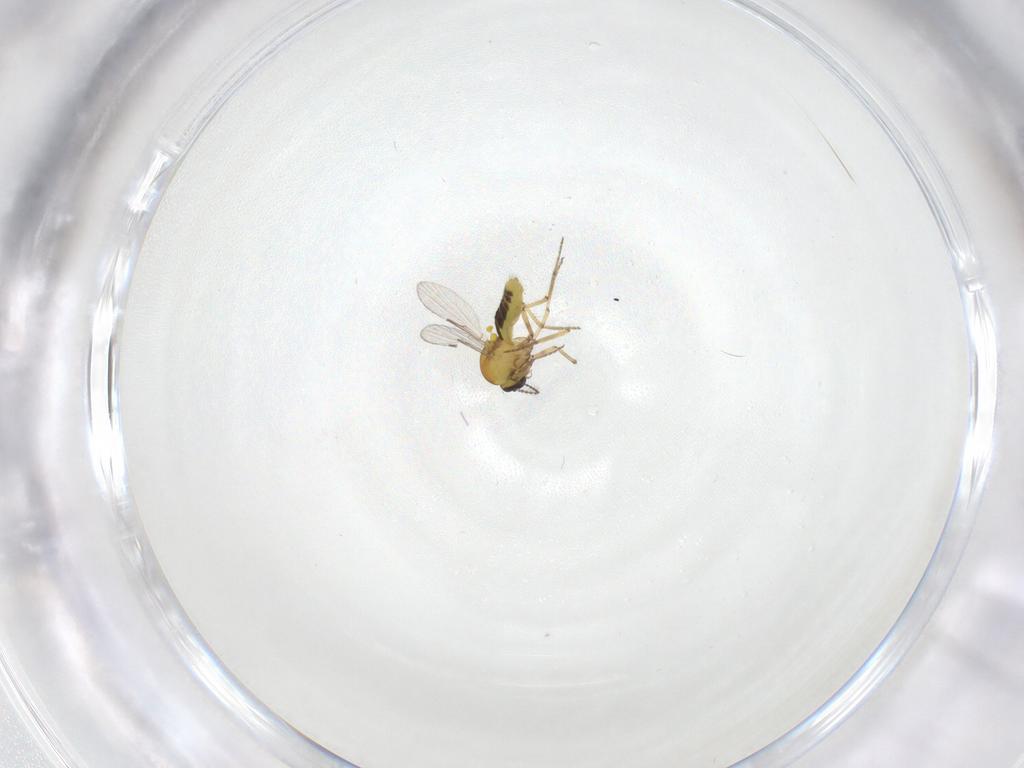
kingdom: Animalia
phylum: Arthropoda
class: Insecta
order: Diptera
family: Ceratopogonidae
